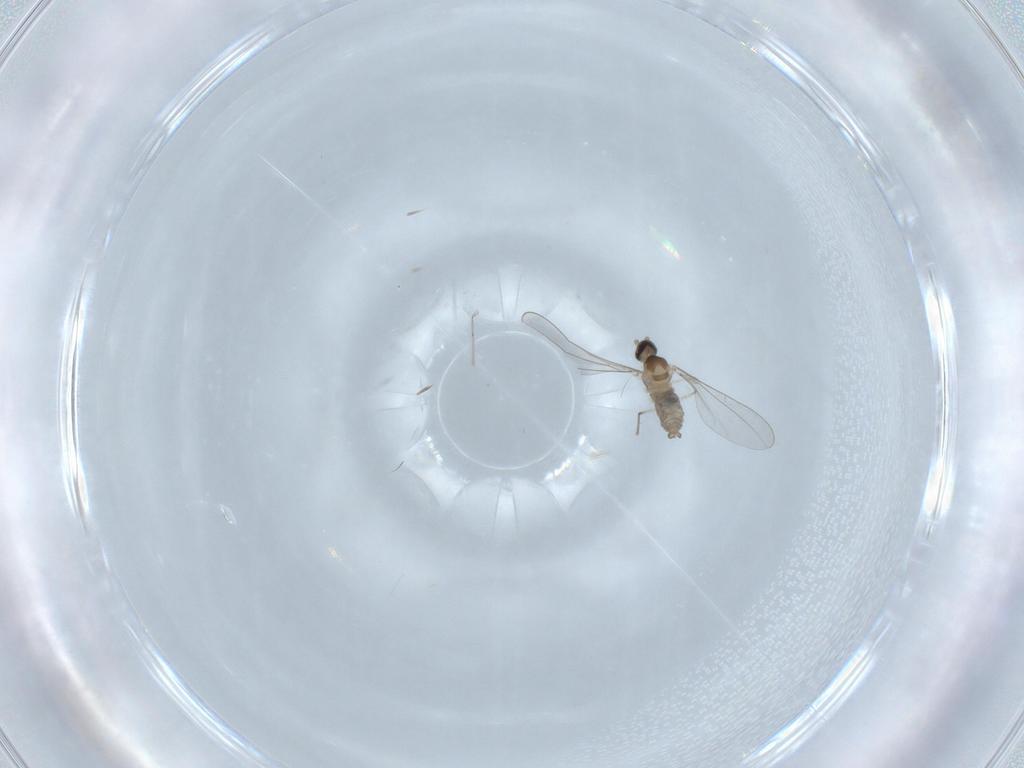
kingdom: Animalia
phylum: Arthropoda
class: Insecta
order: Diptera
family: Cecidomyiidae
